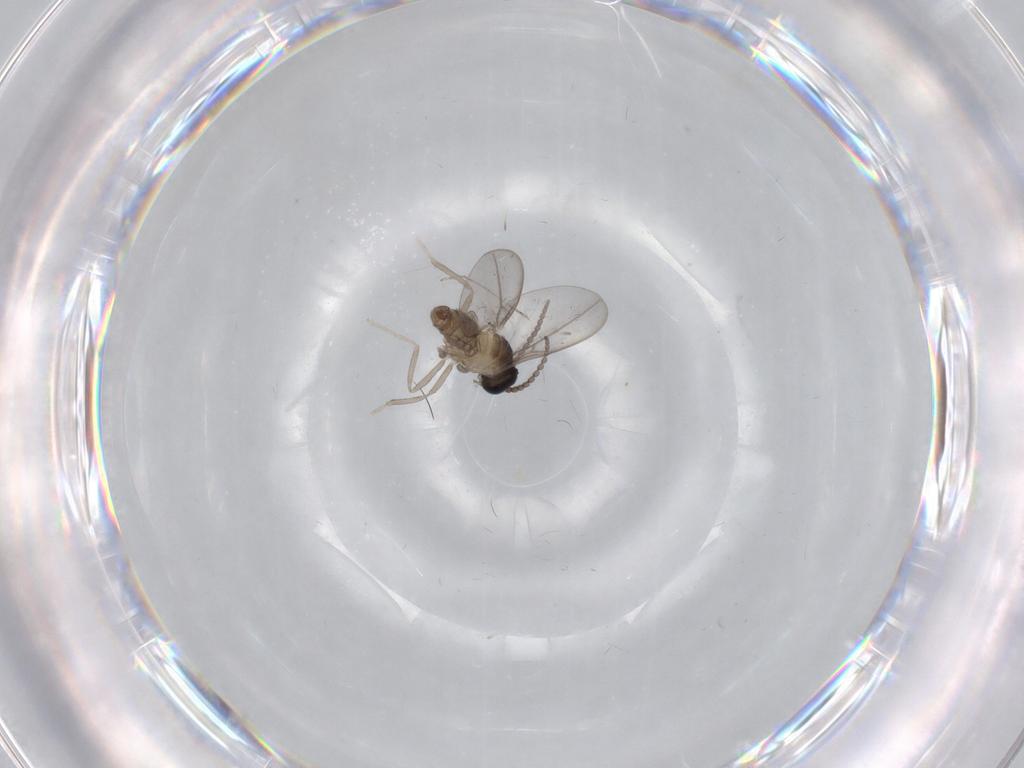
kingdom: Animalia
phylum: Arthropoda
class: Insecta
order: Diptera
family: Cecidomyiidae
